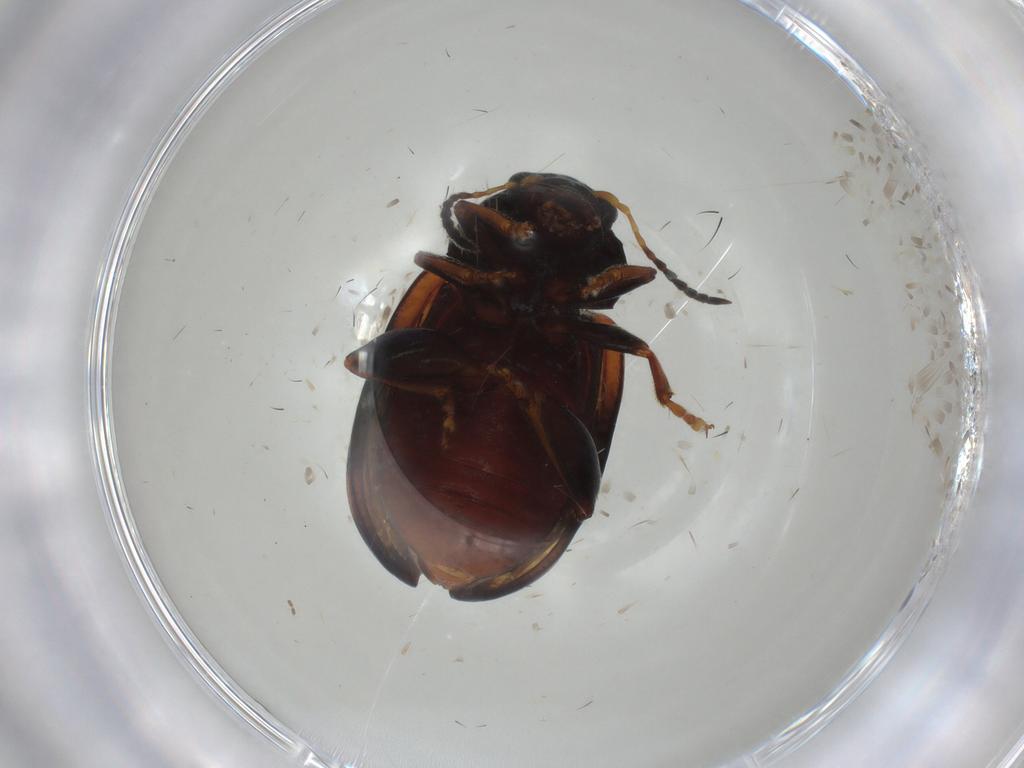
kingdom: Animalia
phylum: Arthropoda
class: Insecta
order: Coleoptera
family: Chrysomelidae
